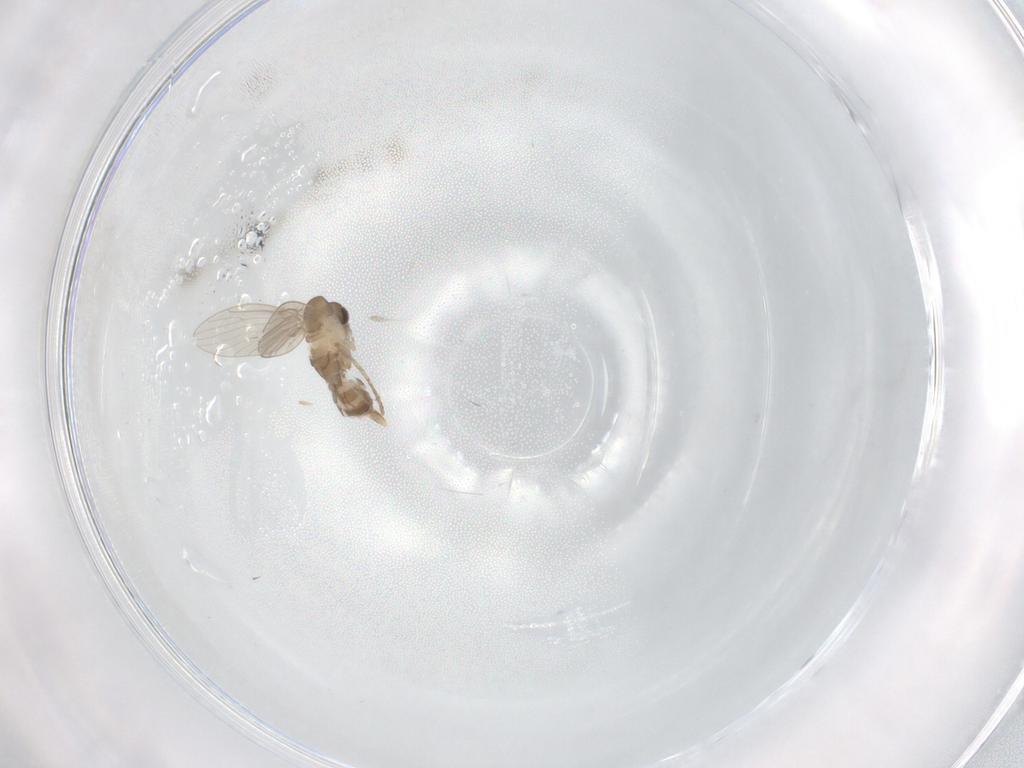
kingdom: Animalia
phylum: Arthropoda
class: Insecta
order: Diptera
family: Psychodidae
